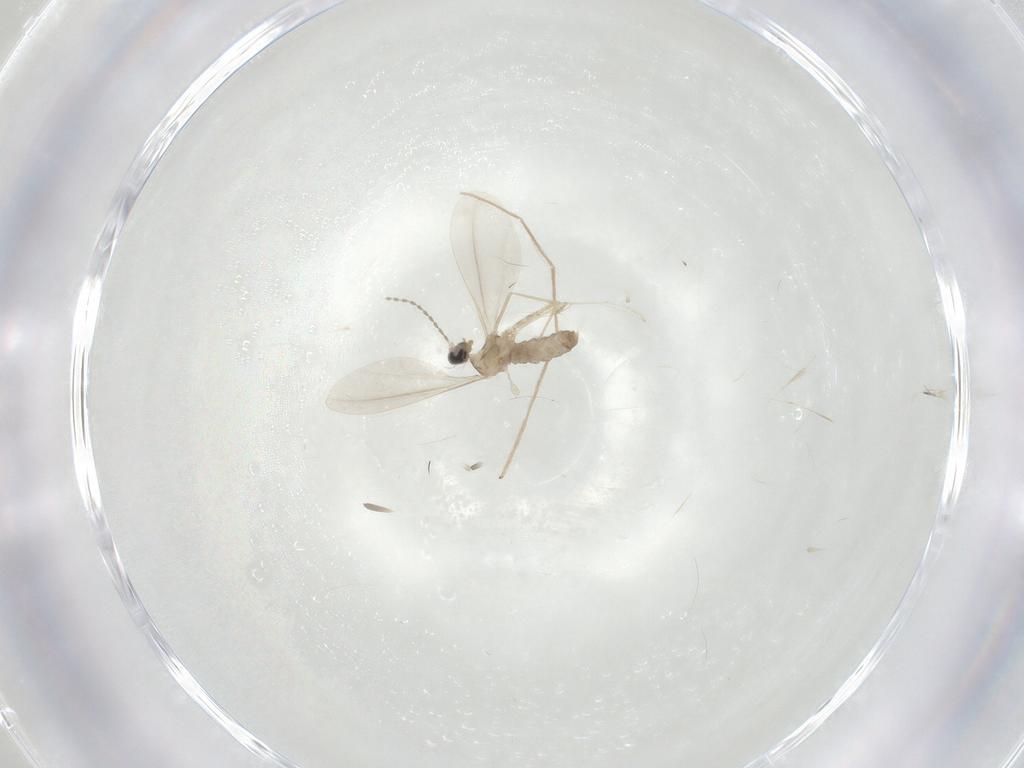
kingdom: Animalia
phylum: Arthropoda
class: Insecta
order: Diptera
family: Cecidomyiidae
